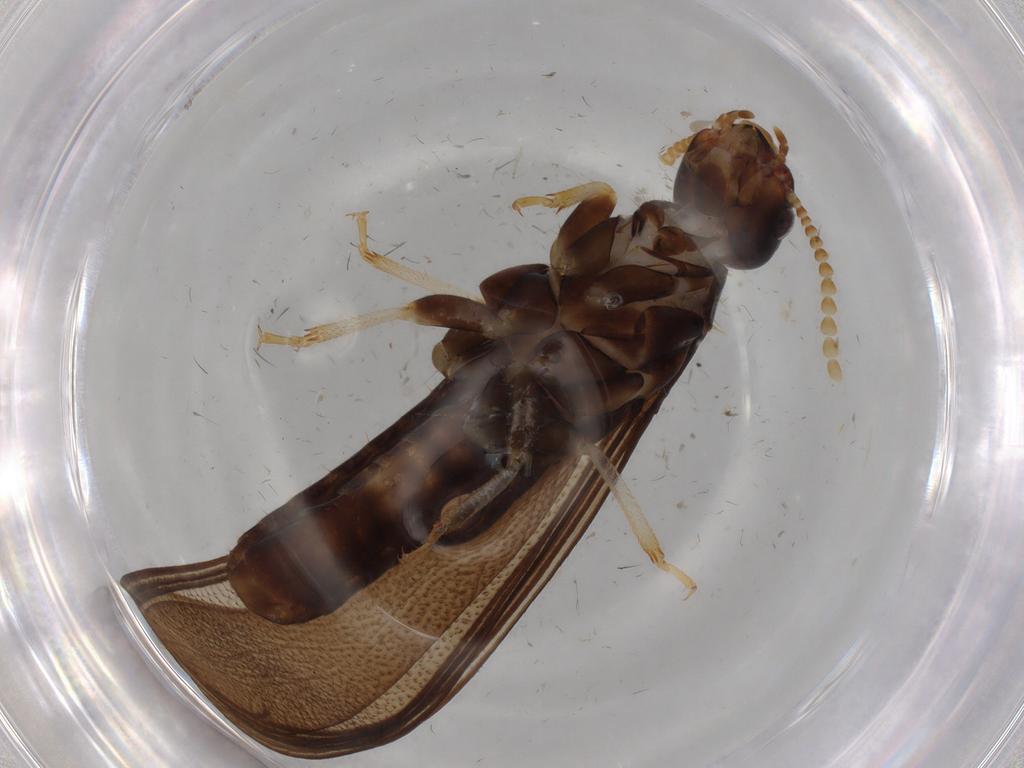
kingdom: Animalia
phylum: Arthropoda
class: Insecta
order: Blattodea
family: Kalotermitidae
